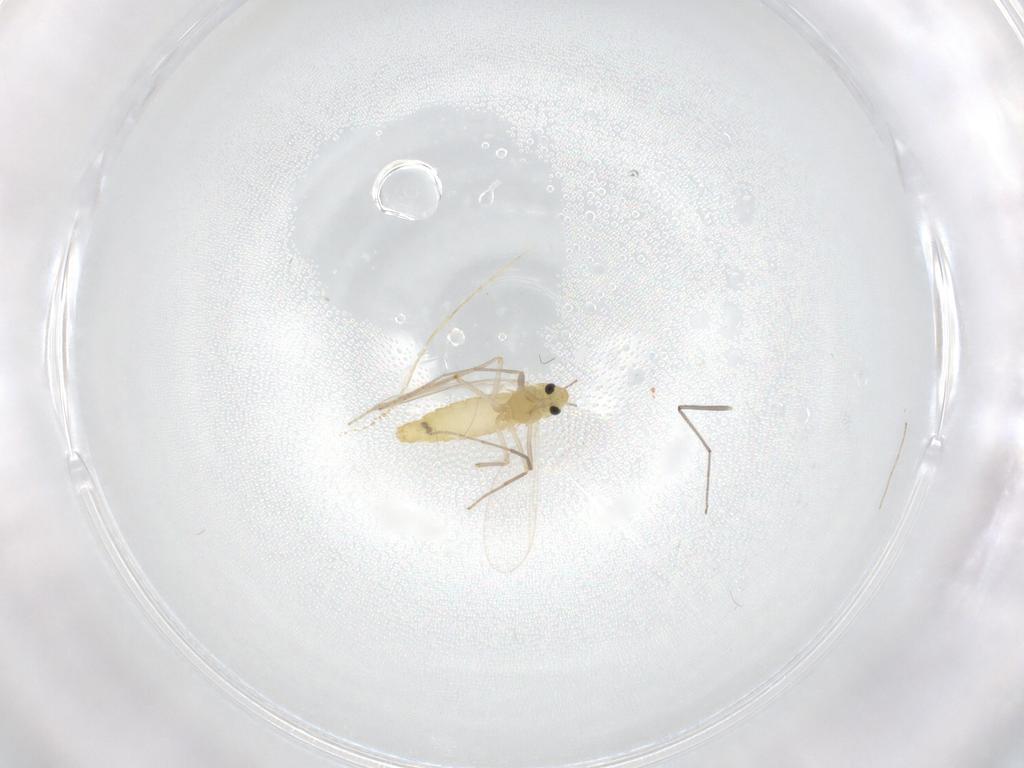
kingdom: Animalia
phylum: Arthropoda
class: Insecta
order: Diptera
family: Chironomidae
